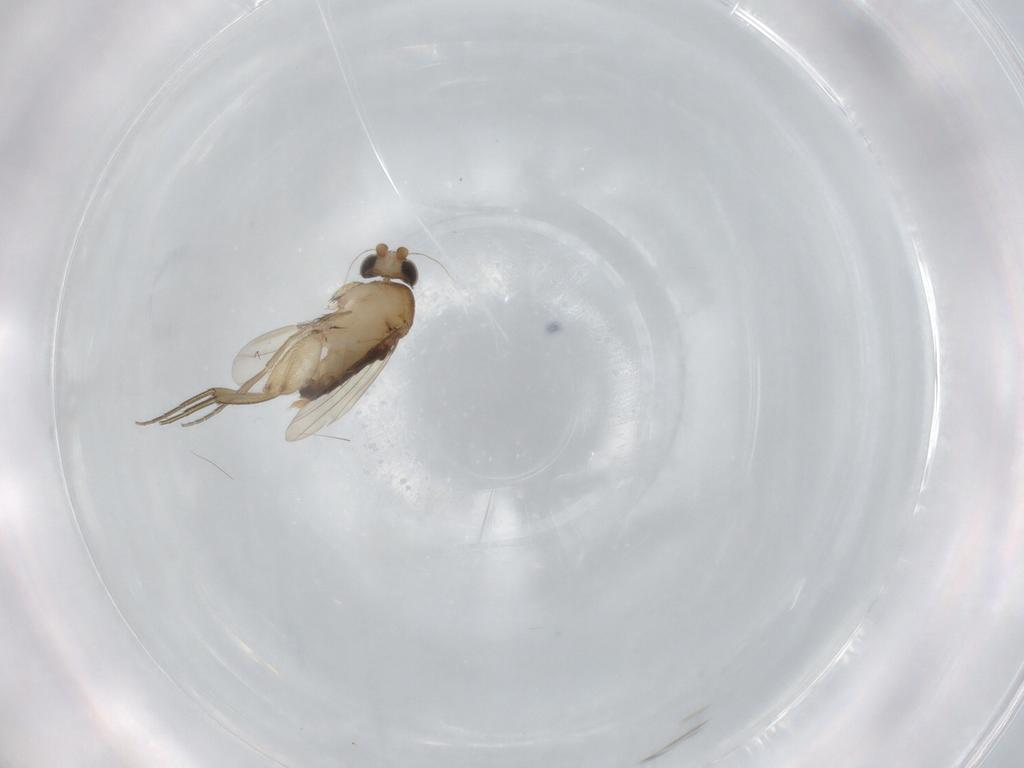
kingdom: Animalia
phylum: Arthropoda
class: Insecta
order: Diptera
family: Phoridae
